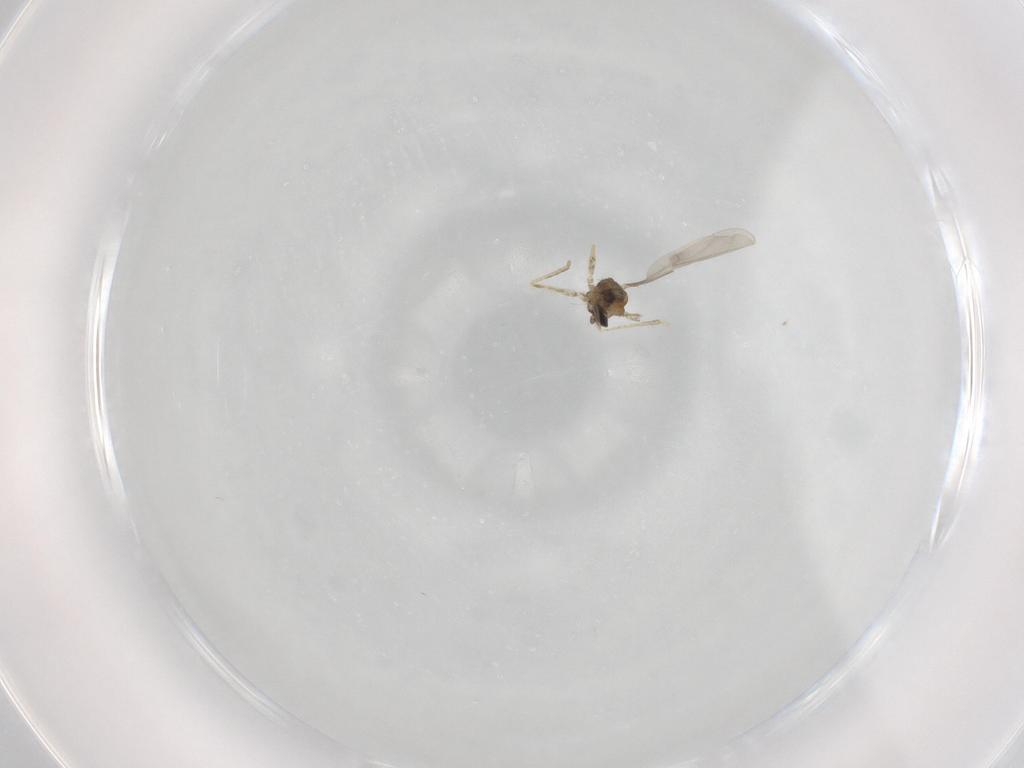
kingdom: Animalia
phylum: Arthropoda
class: Insecta
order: Diptera
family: Cecidomyiidae
